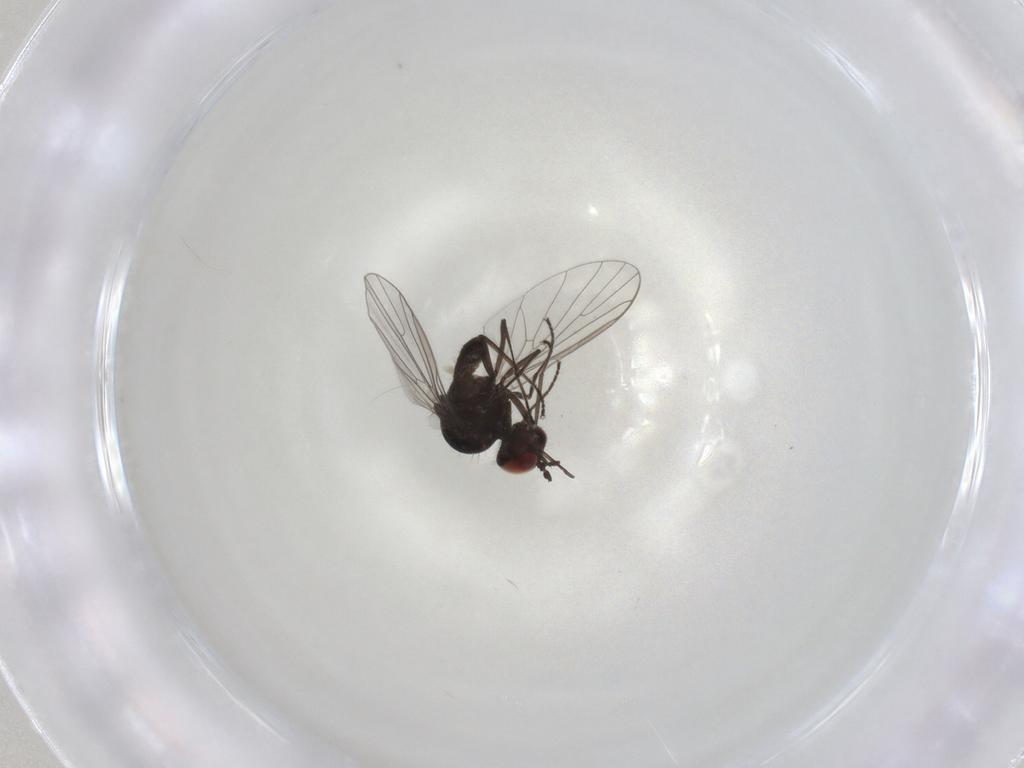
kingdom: Animalia
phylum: Arthropoda
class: Insecta
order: Diptera
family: Bombyliidae
